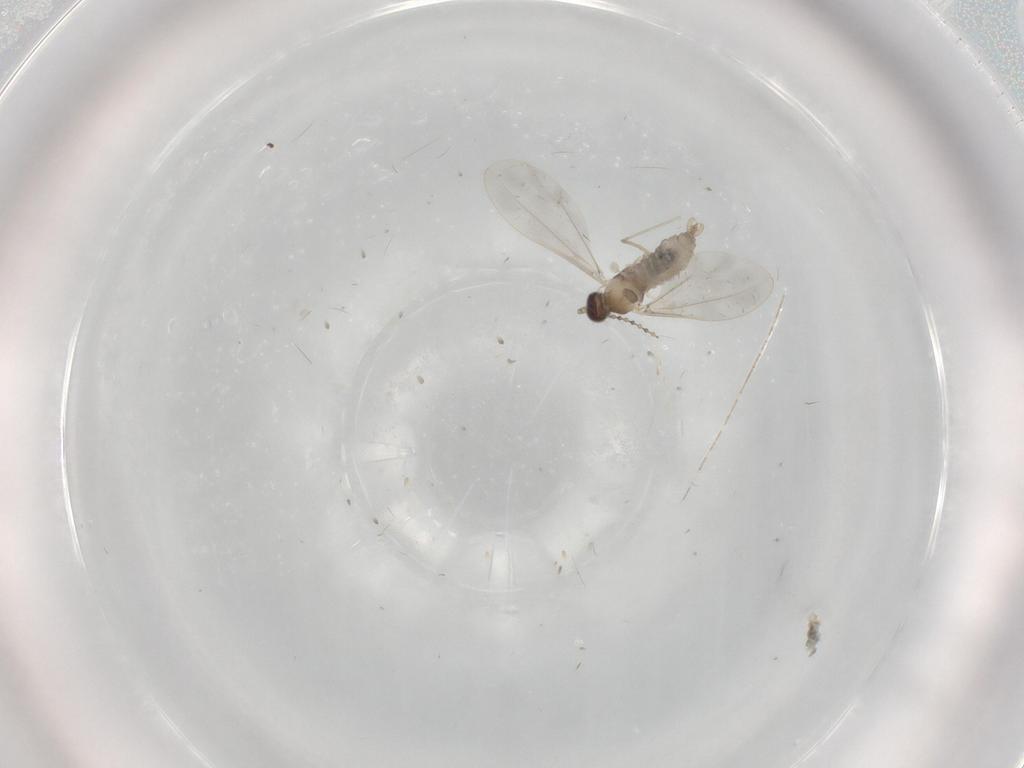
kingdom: Animalia
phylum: Arthropoda
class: Insecta
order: Diptera
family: Cecidomyiidae
